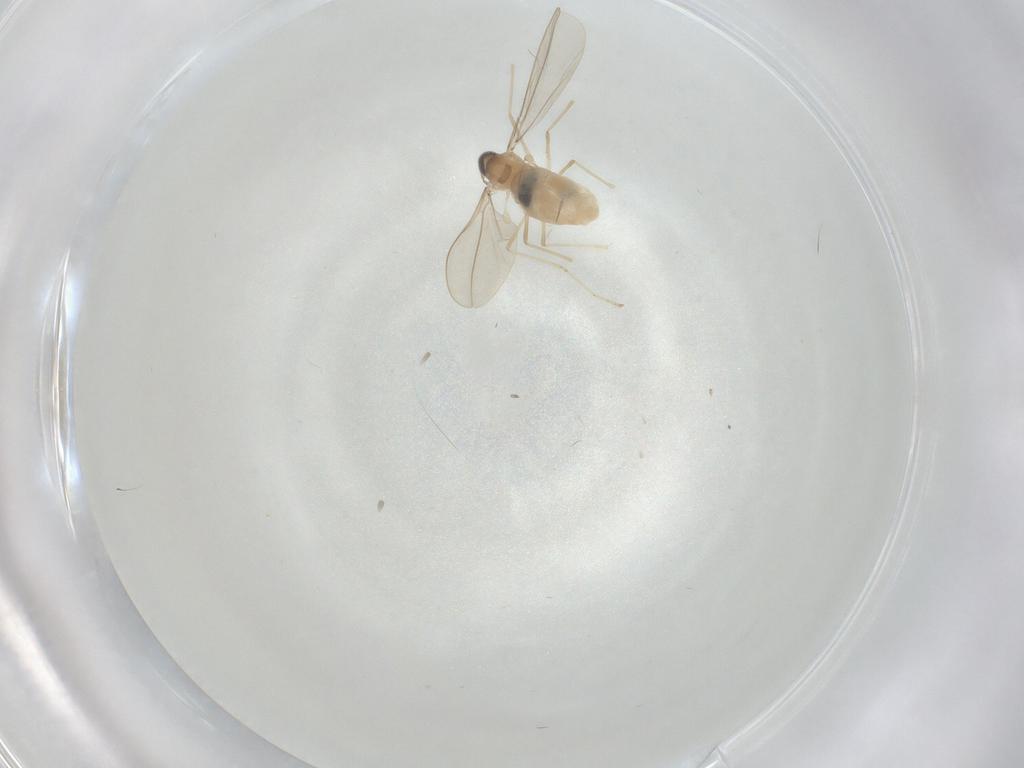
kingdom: Animalia
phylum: Arthropoda
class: Insecta
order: Diptera
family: Cecidomyiidae
